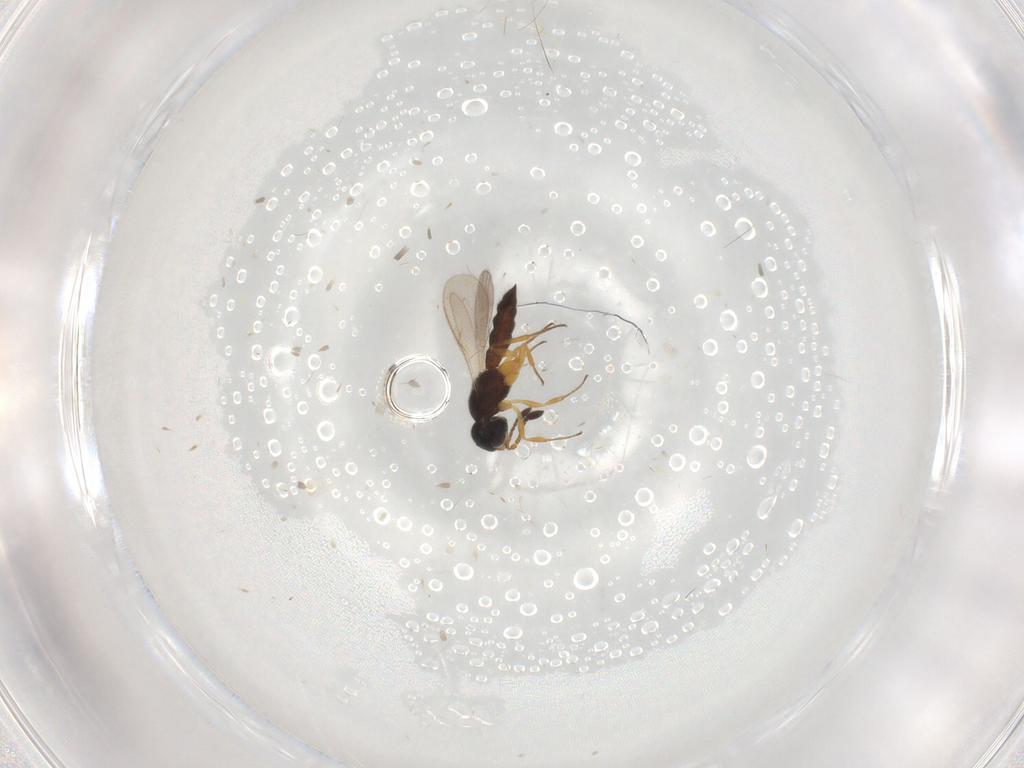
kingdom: Animalia
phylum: Arthropoda
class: Insecta
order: Hymenoptera
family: Scelionidae
